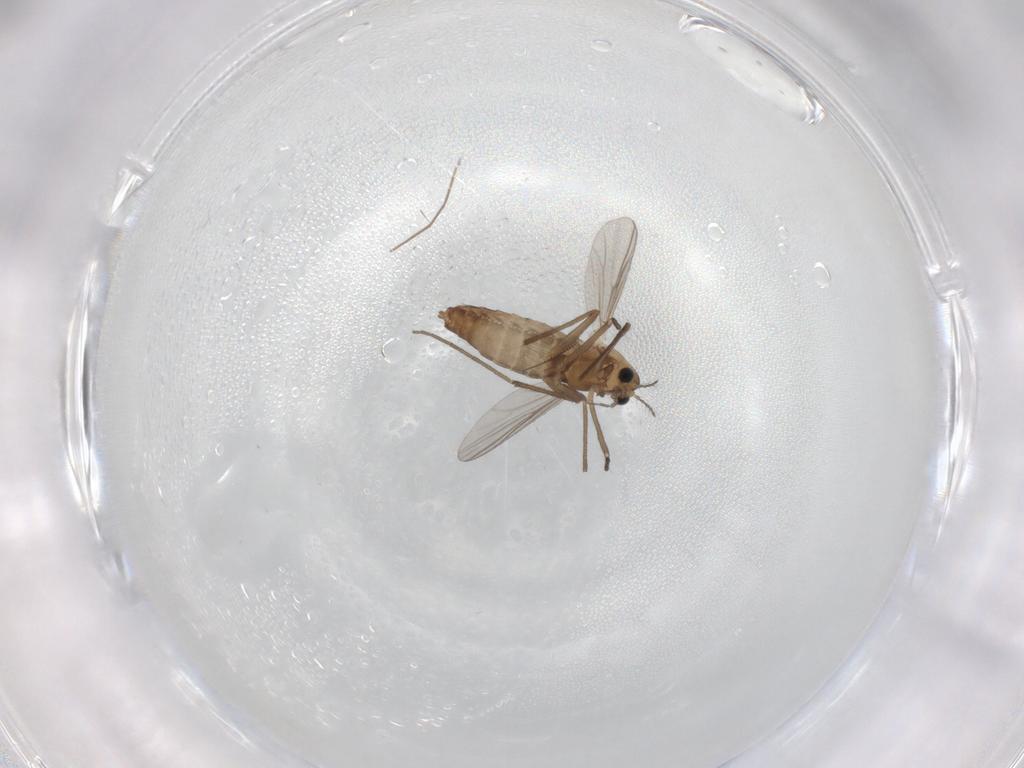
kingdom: Animalia
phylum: Arthropoda
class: Insecta
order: Diptera
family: Chironomidae
